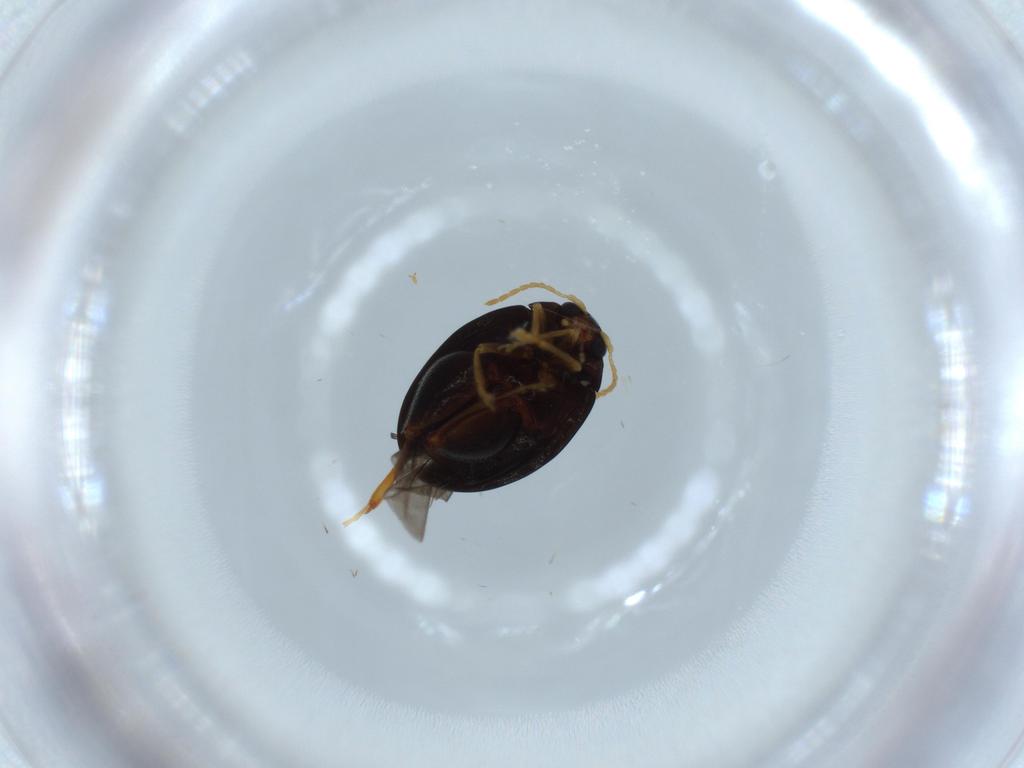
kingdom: Animalia
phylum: Arthropoda
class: Insecta
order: Coleoptera
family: Chrysomelidae
